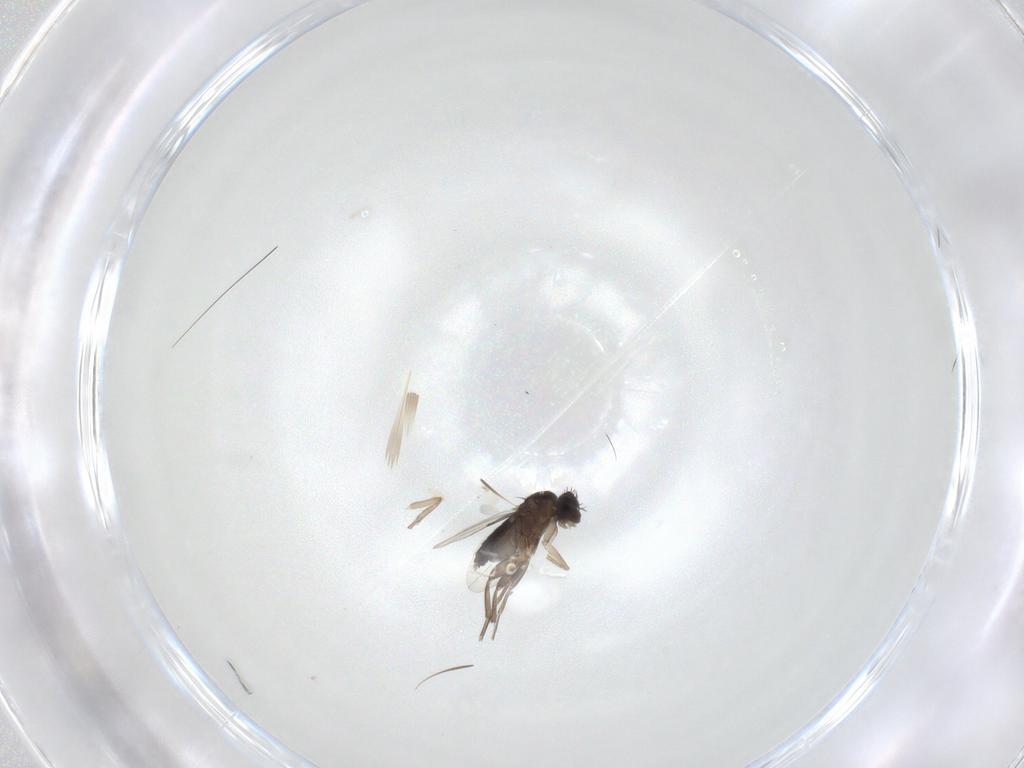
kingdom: Animalia
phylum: Arthropoda
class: Insecta
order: Diptera
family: Phoridae
